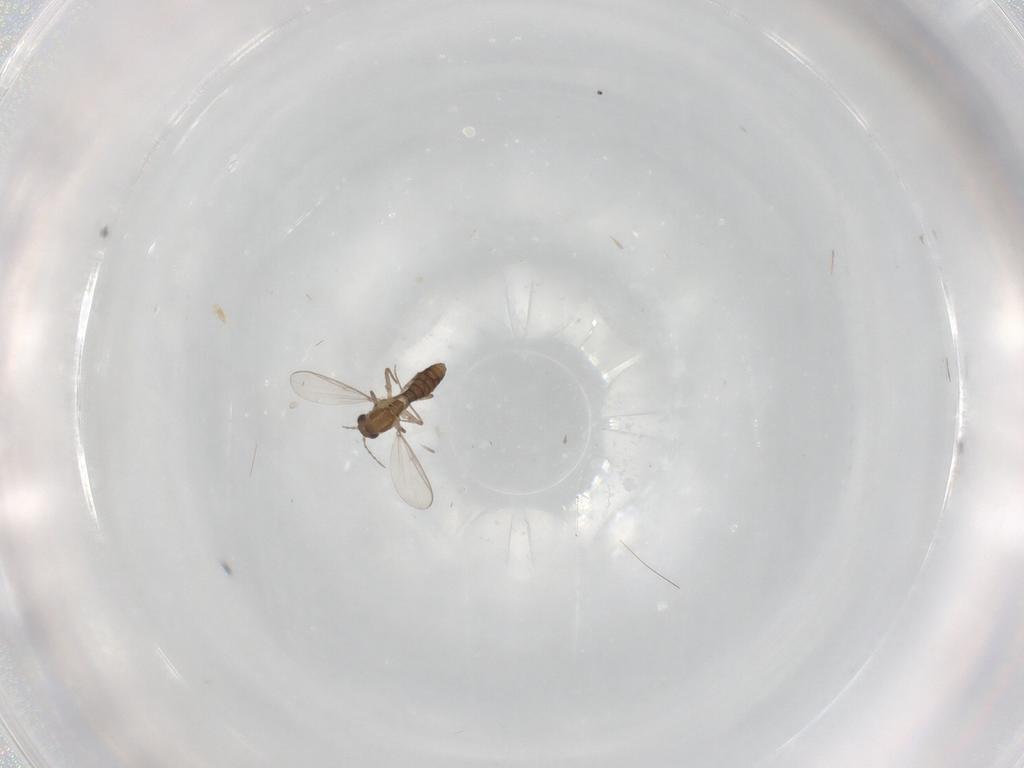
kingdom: Animalia
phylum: Arthropoda
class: Insecta
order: Diptera
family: Chironomidae
